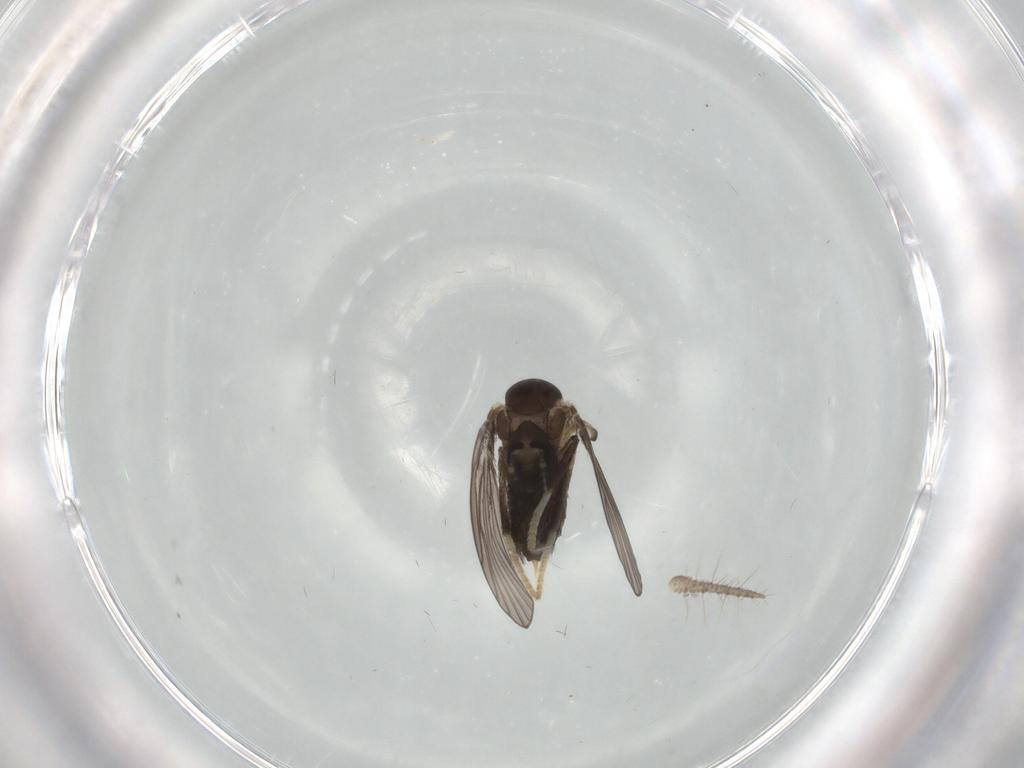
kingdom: Animalia
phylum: Arthropoda
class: Insecta
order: Diptera
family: Psychodidae
